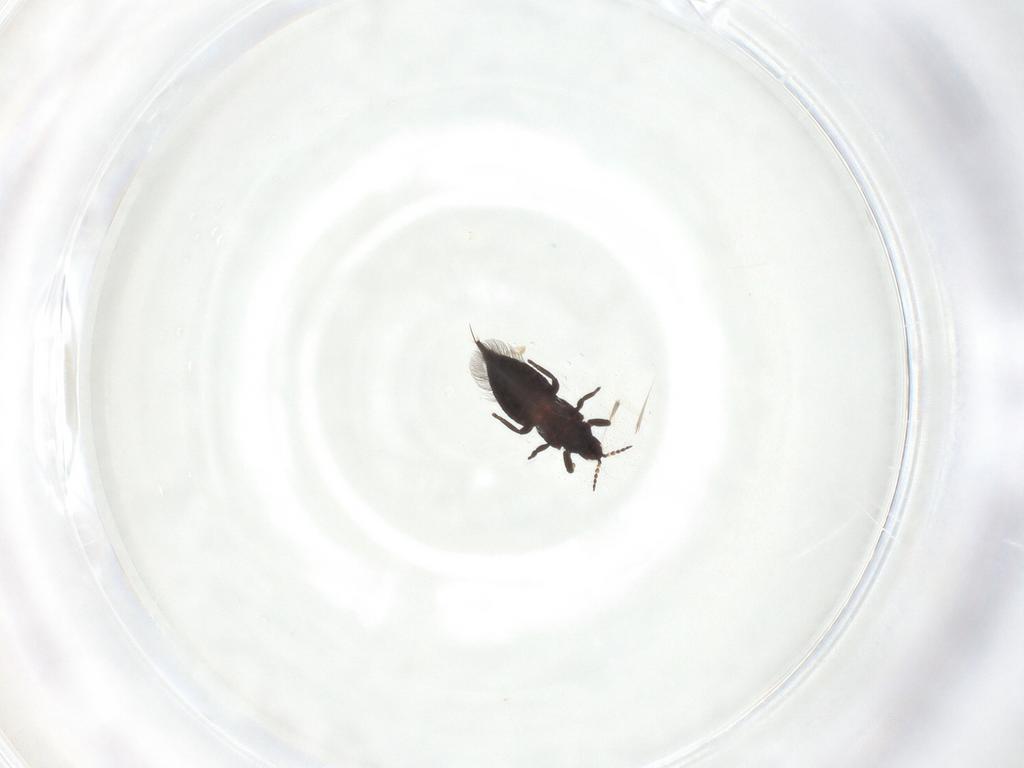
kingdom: Animalia
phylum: Arthropoda
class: Insecta
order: Thysanoptera
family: Phlaeothripidae
